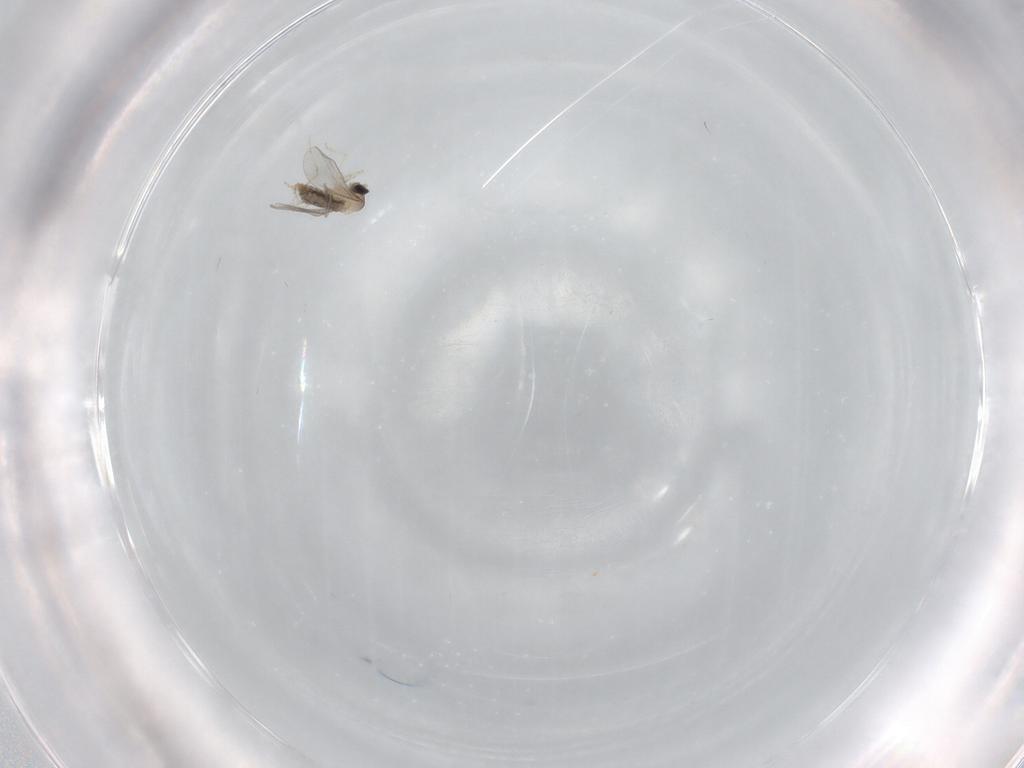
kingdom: Animalia
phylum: Arthropoda
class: Insecta
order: Diptera
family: Cecidomyiidae
